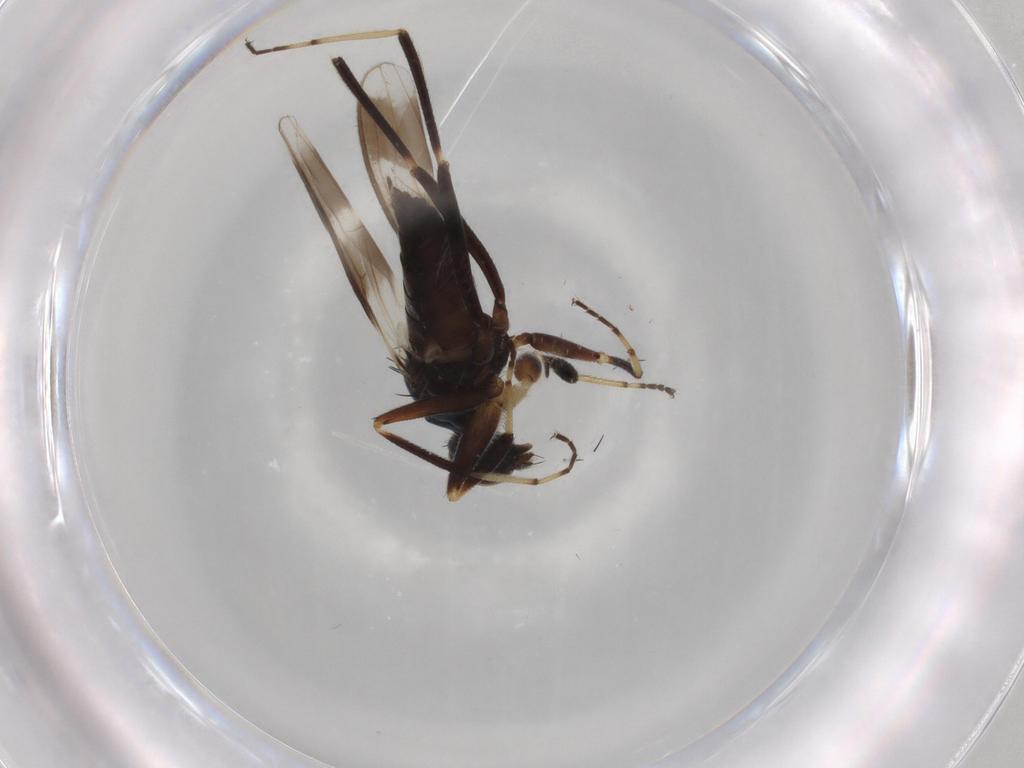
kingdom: Animalia
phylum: Arthropoda
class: Insecta
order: Diptera
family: Hybotidae
